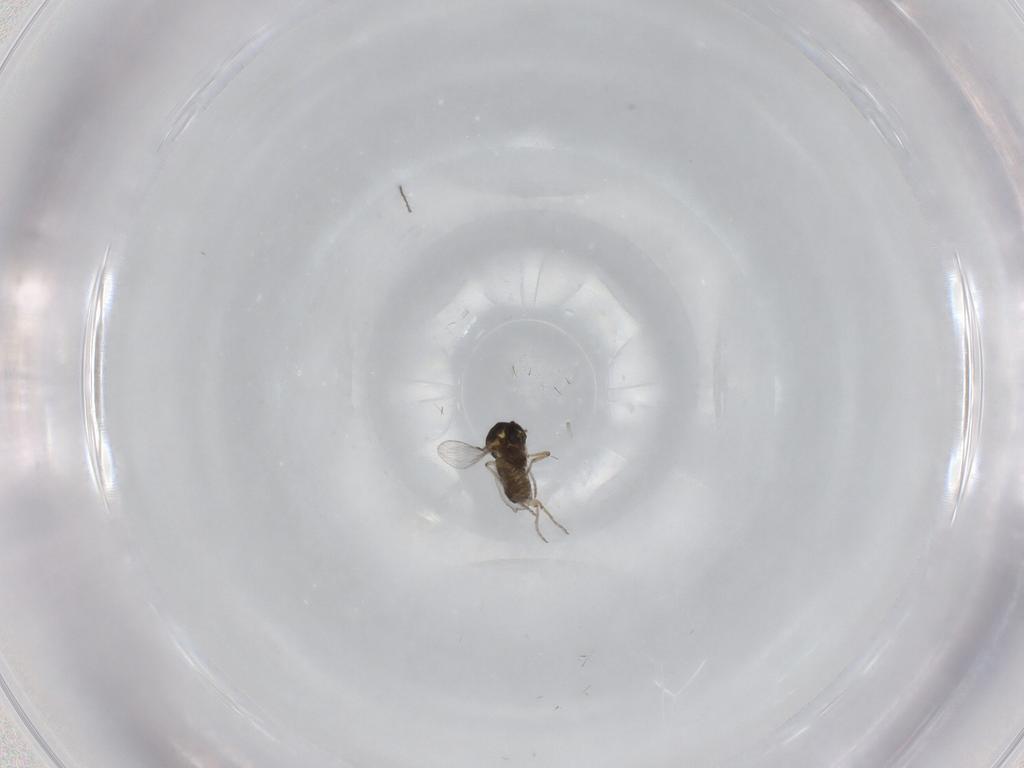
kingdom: Animalia
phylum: Arthropoda
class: Insecta
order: Diptera
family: Ceratopogonidae
